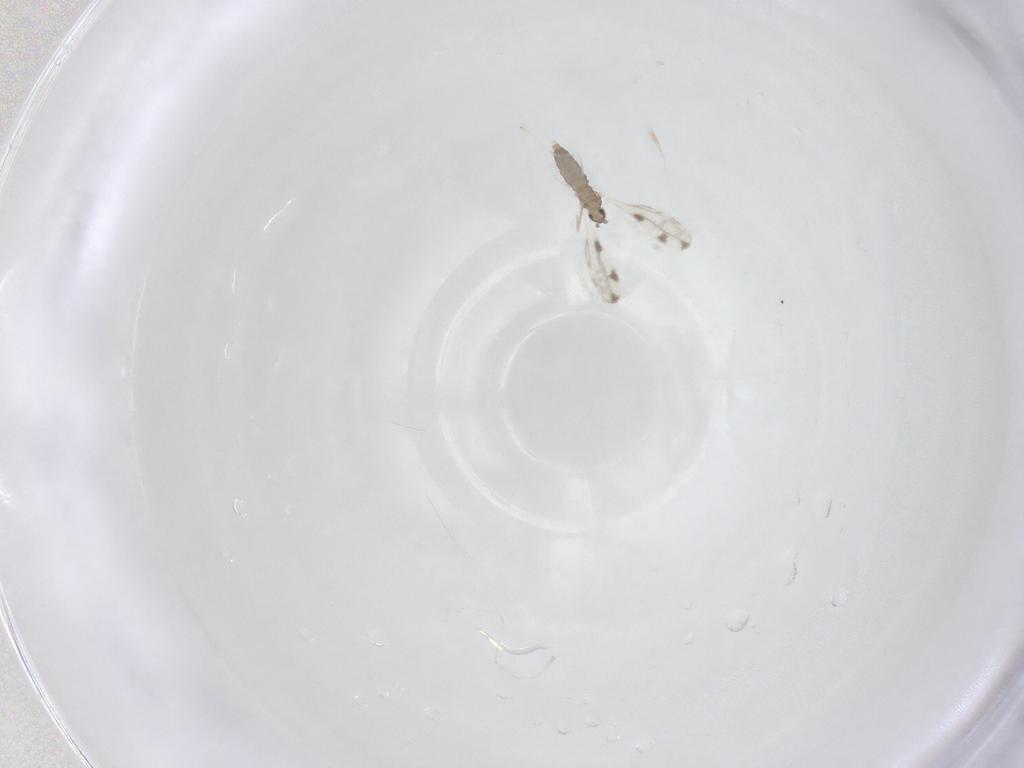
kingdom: Animalia
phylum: Arthropoda
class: Insecta
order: Diptera
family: Cecidomyiidae
